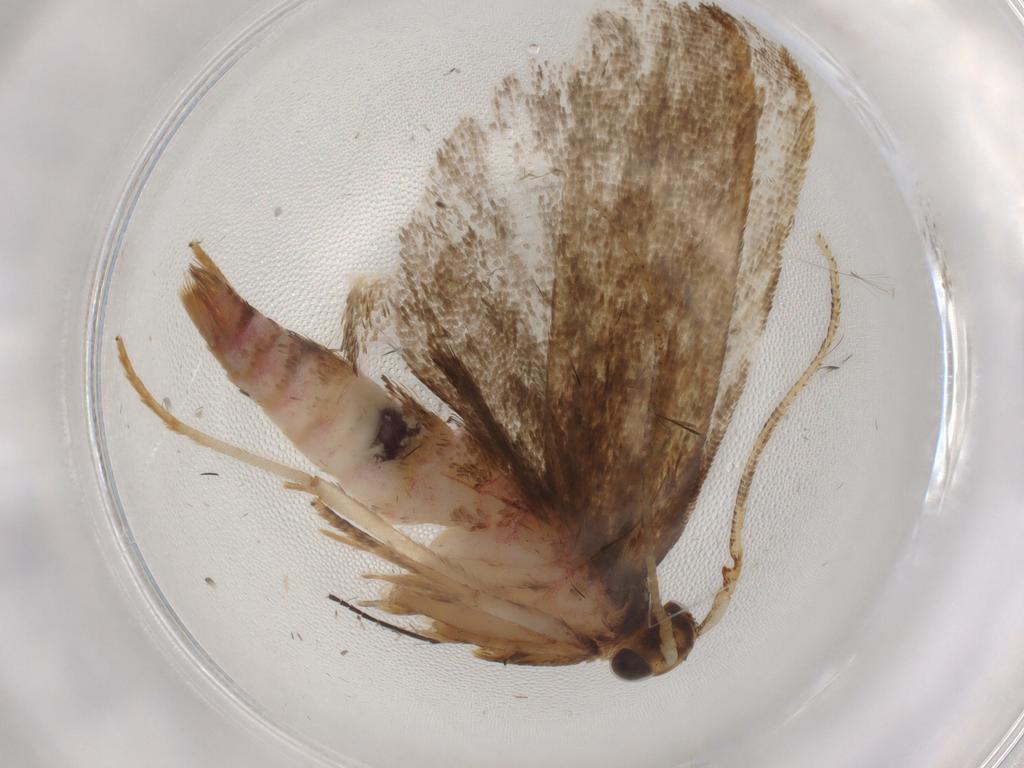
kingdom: Animalia
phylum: Arthropoda
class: Insecta
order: Lepidoptera
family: Autostichidae
